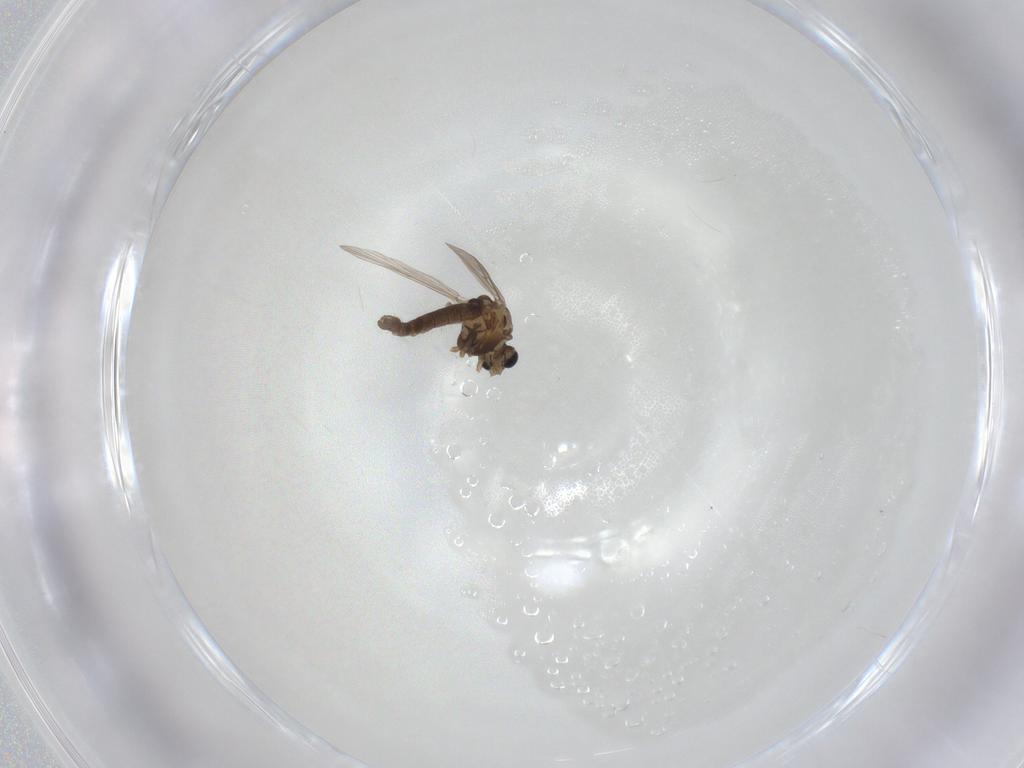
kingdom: Animalia
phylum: Arthropoda
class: Insecta
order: Diptera
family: Chironomidae
